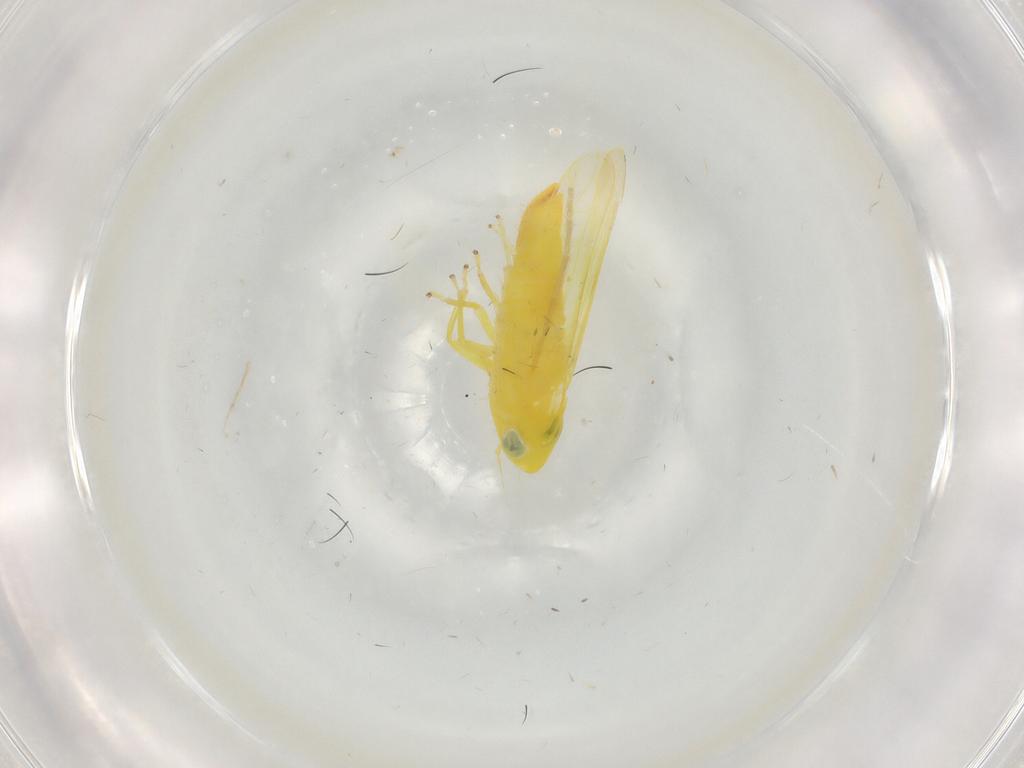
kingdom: Animalia
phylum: Arthropoda
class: Insecta
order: Hemiptera
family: Cicadellidae
